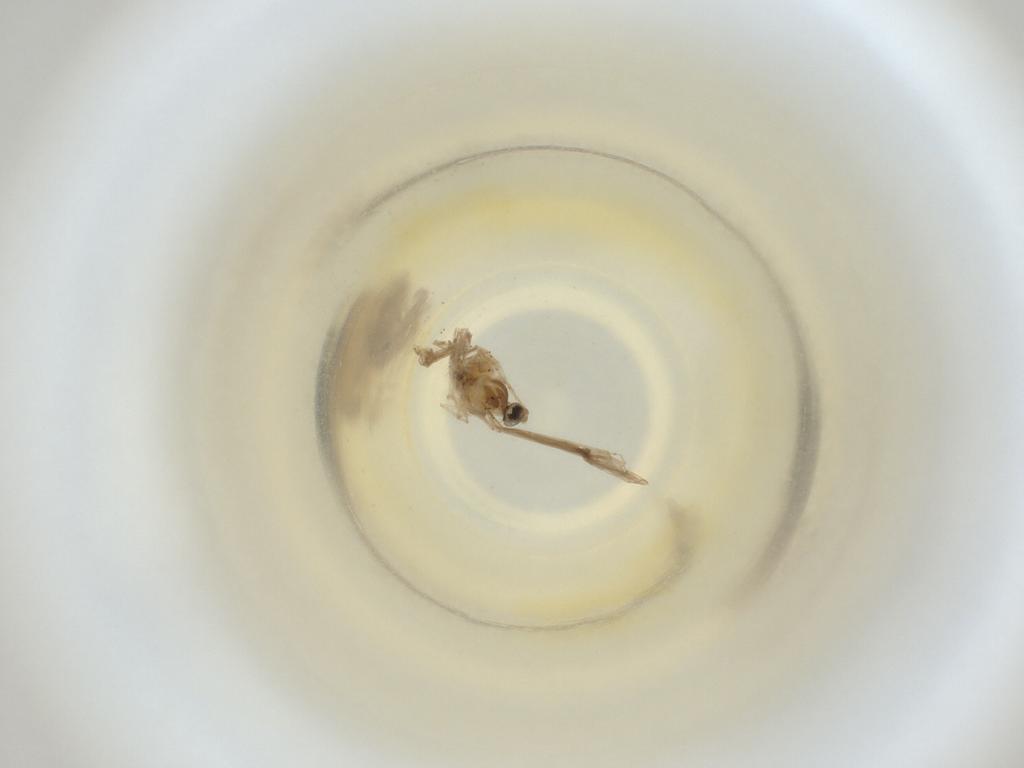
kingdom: Animalia
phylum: Arthropoda
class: Insecta
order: Diptera
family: Cecidomyiidae
